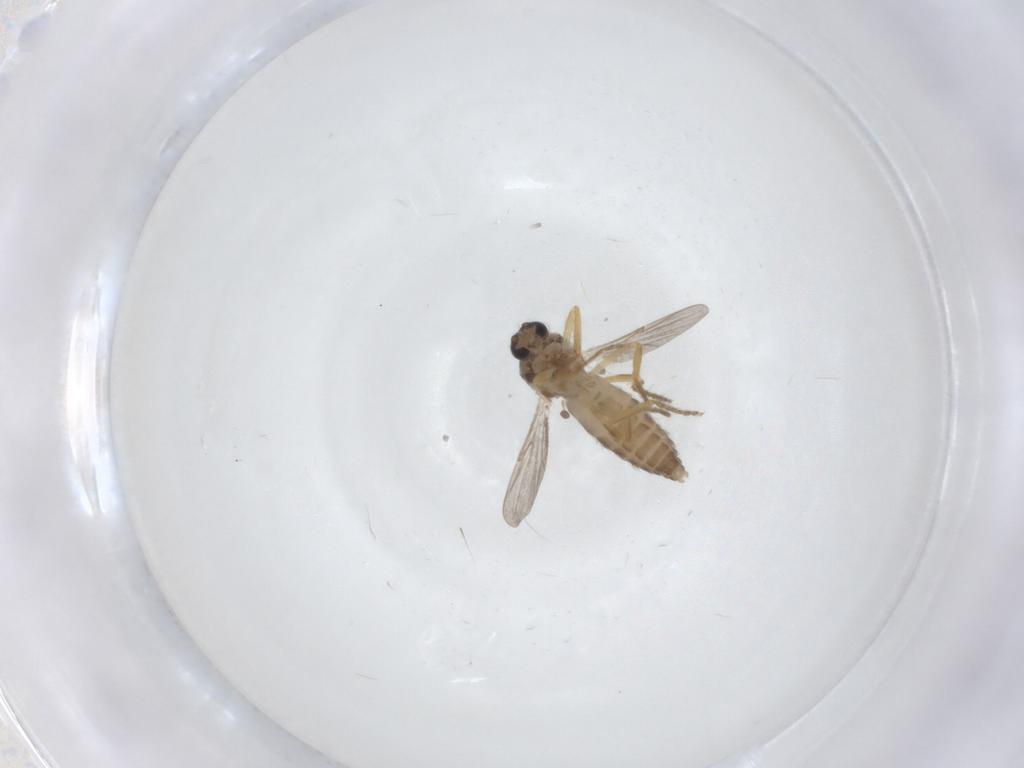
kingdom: Animalia
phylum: Arthropoda
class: Insecta
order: Diptera
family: Ceratopogonidae
